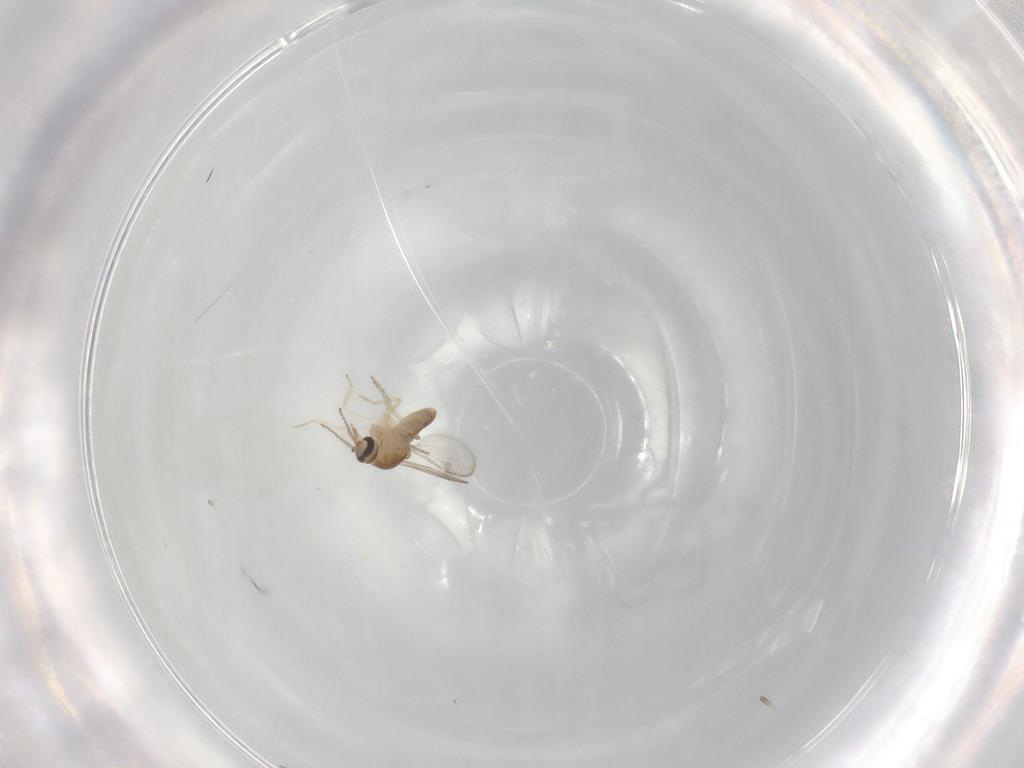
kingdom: Animalia
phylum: Arthropoda
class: Insecta
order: Diptera
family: Ceratopogonidae
